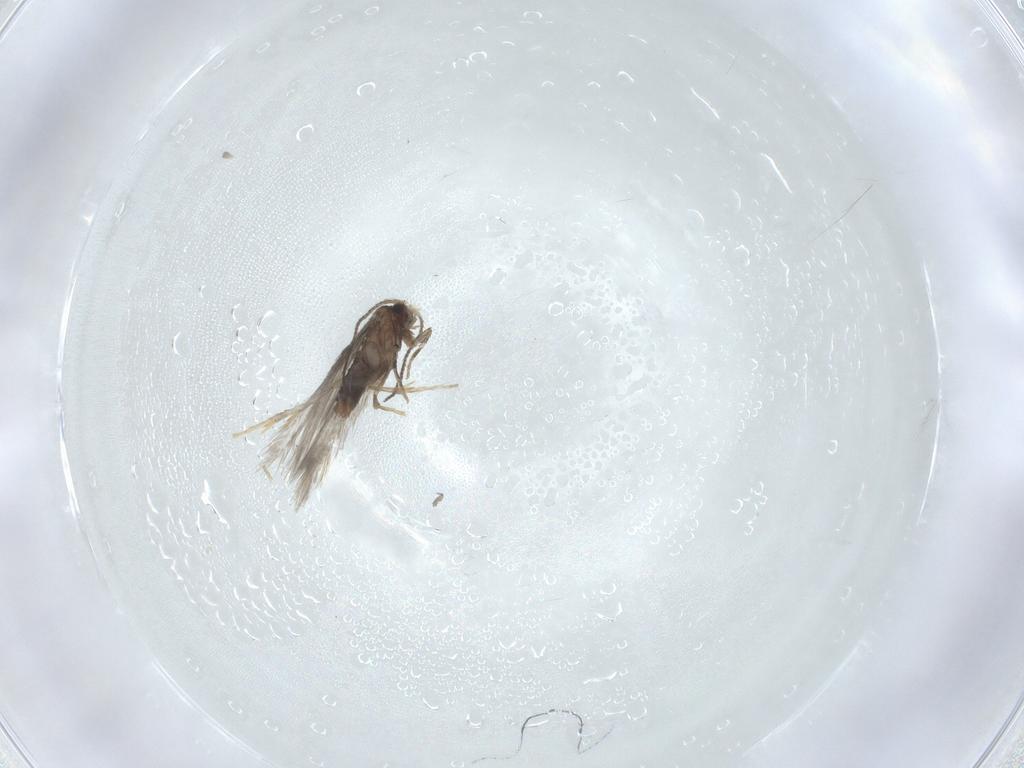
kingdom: Animalia
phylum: Arthropoda
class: Insecta
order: Lepidoptera
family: Nepticulidae
